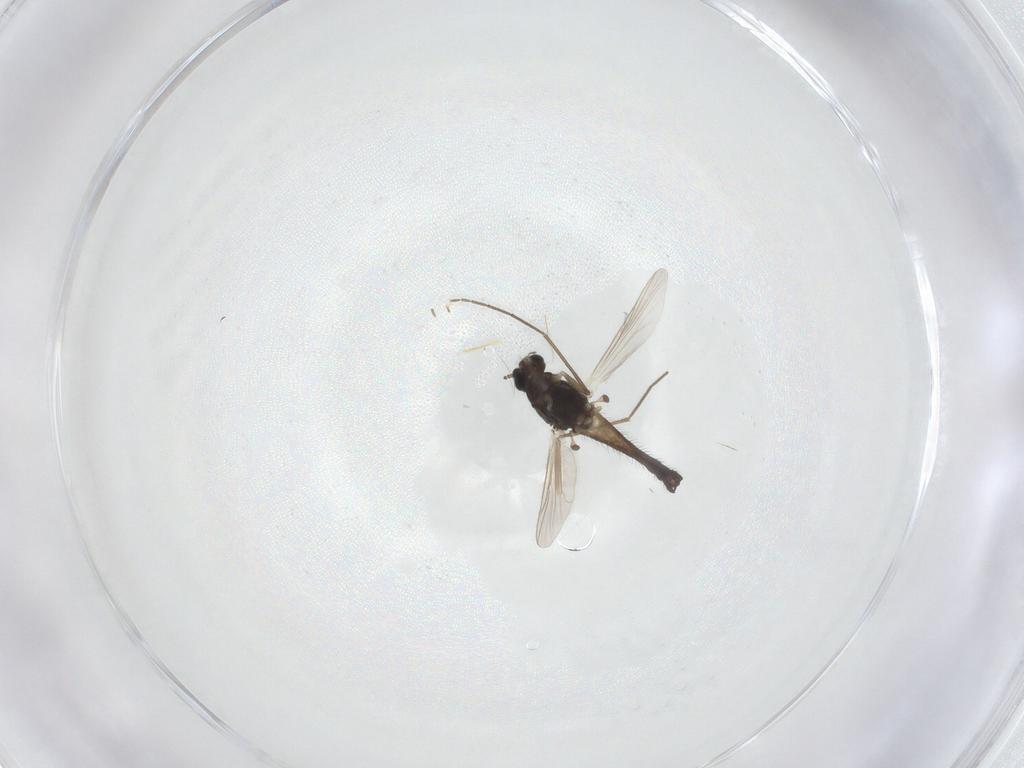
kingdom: Animalia
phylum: Arthropoda
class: Insecta
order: Diptera
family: Chironomidae
